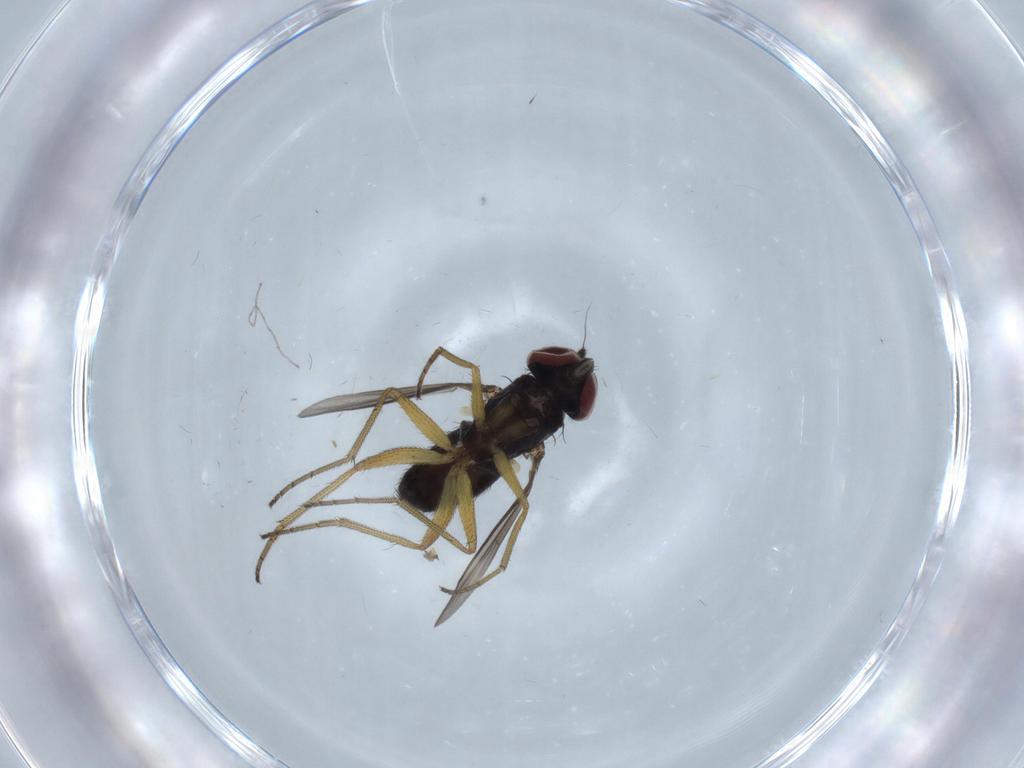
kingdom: Animalia
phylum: Arthropoda
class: Insecta
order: Diptera
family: Dolichopodidae
